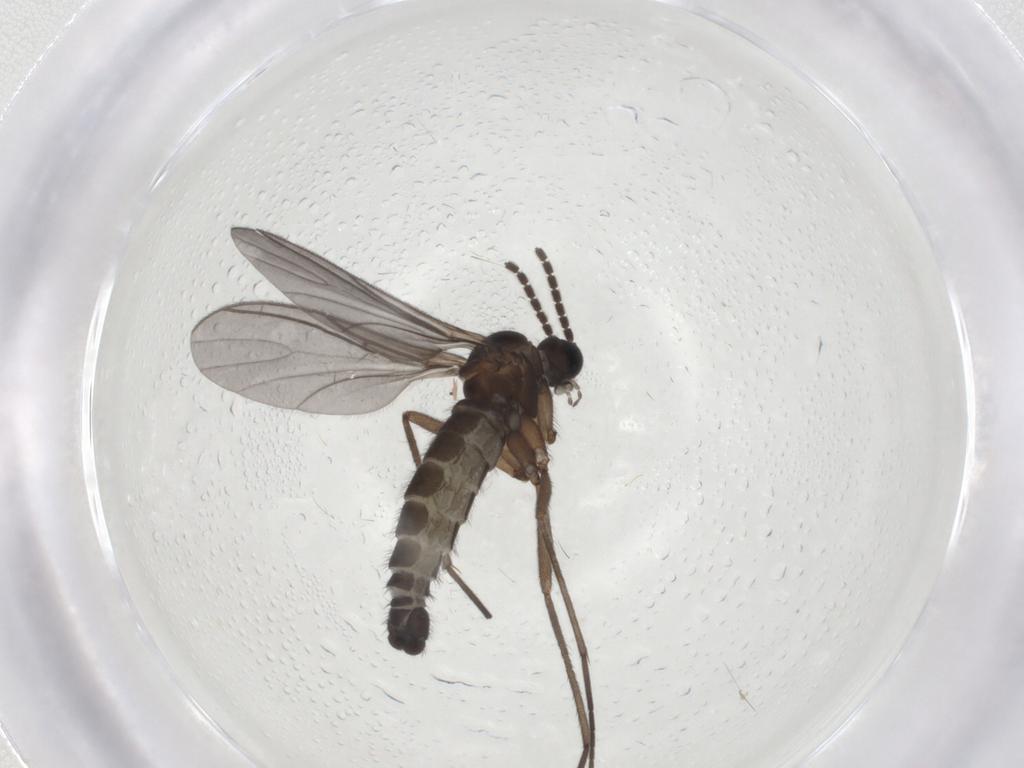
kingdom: Animalia
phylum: Arthropoda
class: Insecta
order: Diptera
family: Sciaridae
